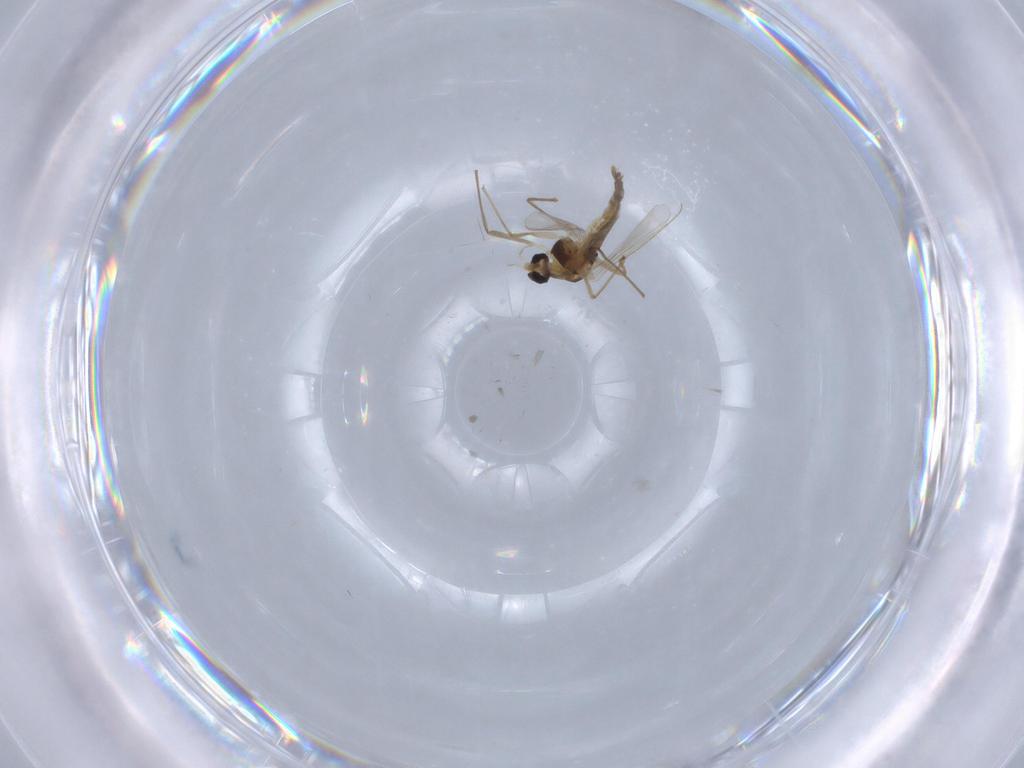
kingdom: Animalia
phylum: Arthropoda
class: Insecta
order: Diptera
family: Chironomidae
